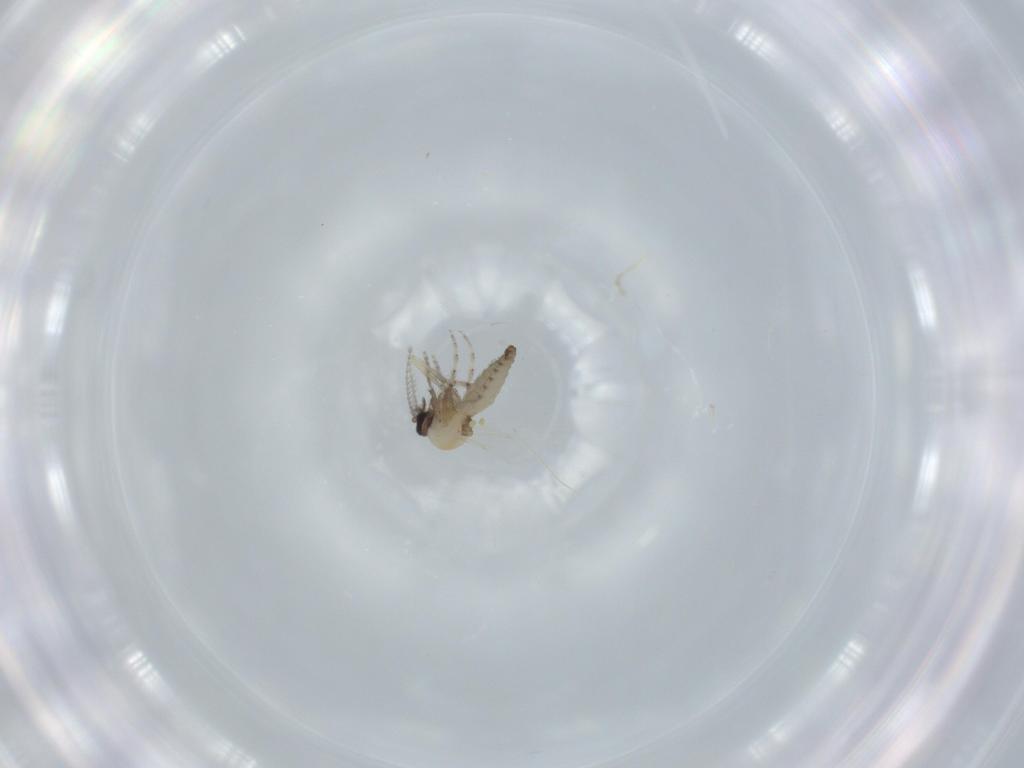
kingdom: Animalia
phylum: Arthropoda
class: Insecta
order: Diptera
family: Ceratopogonidae
